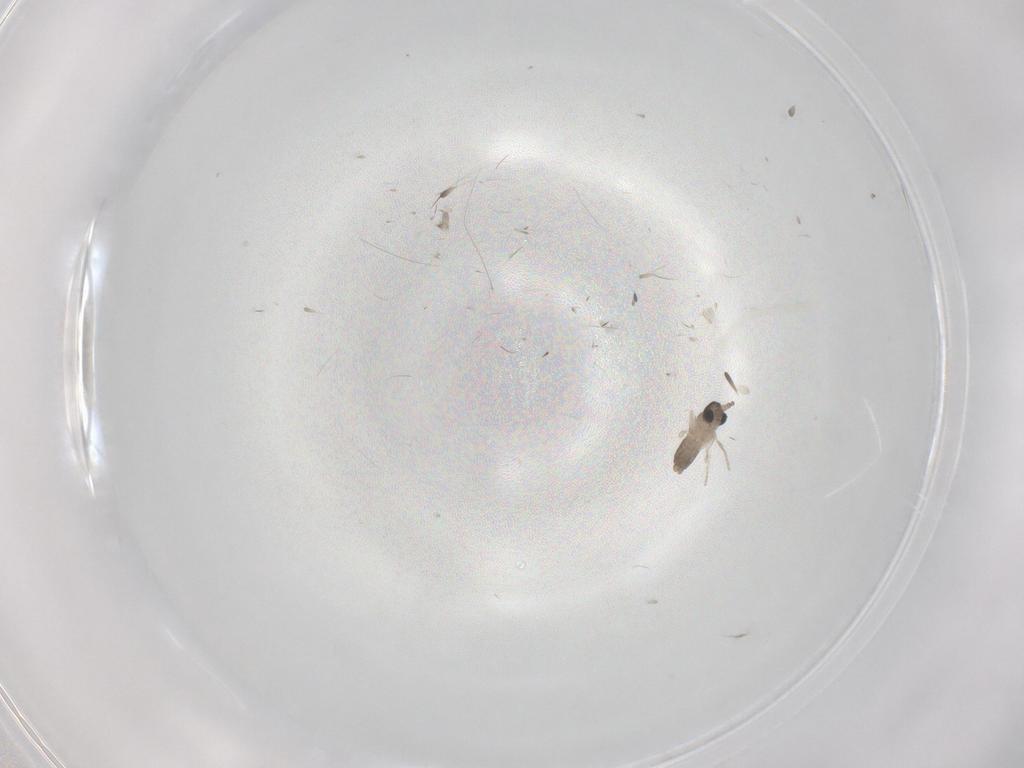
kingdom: Animalia
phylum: Arthropoda
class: Insecta
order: Diptera
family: Cecidomyiidae
